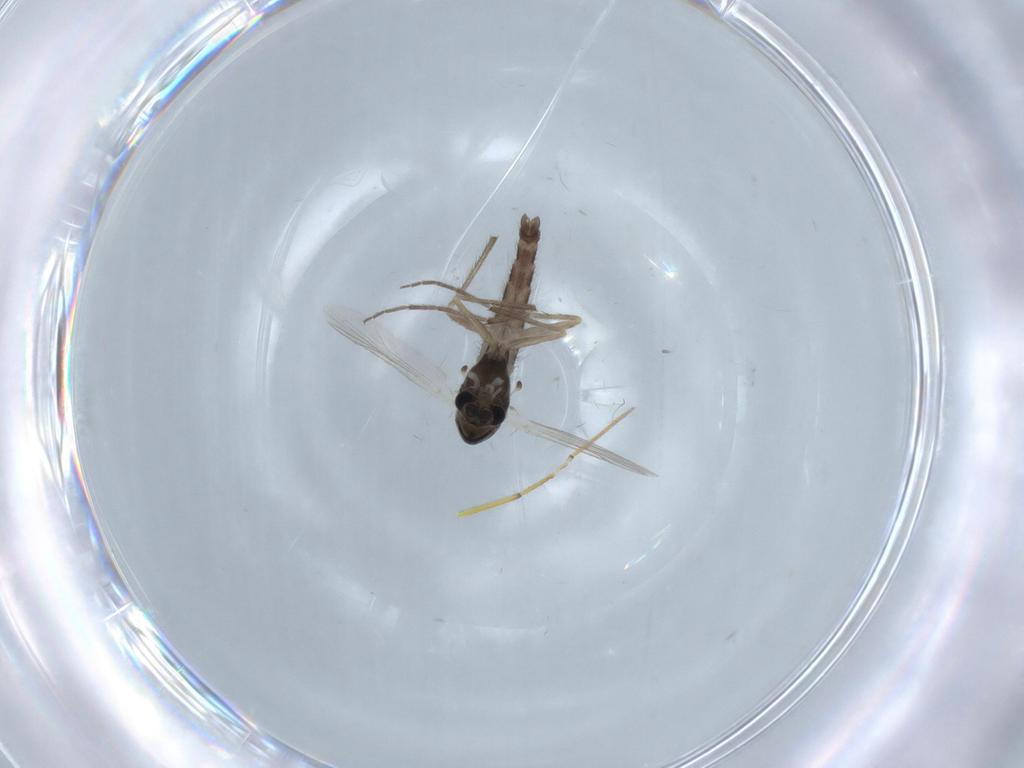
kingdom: Animalia
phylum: Arthropoda
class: Insecta
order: Diptera
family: Chironomidae
